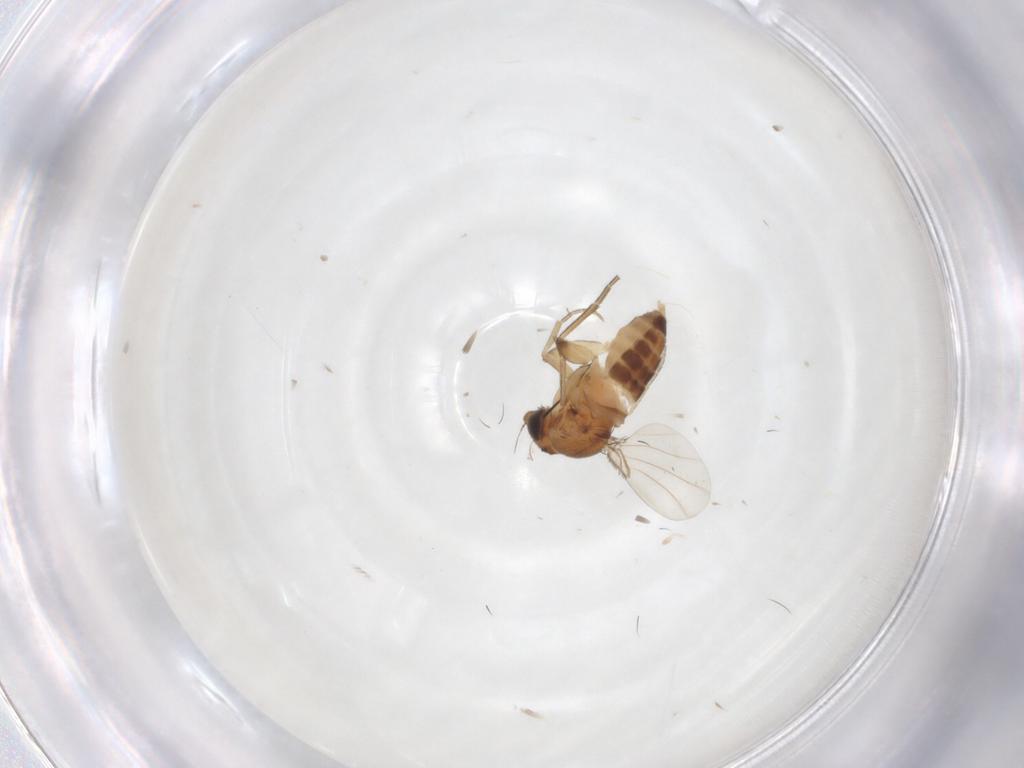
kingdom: Animalia
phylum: Arthropoda
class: Insecta
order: Diptera
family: Phoridae
